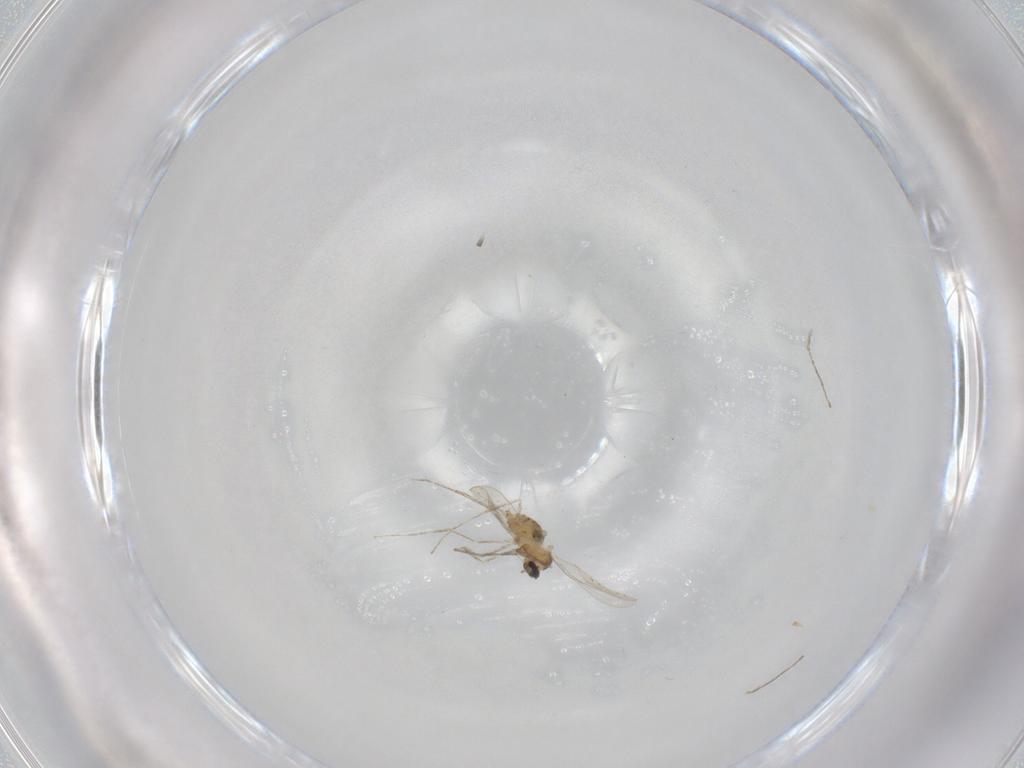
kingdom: Animalia
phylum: Arthropoda
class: Insecta
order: Diptera
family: Cecidomyiidae
